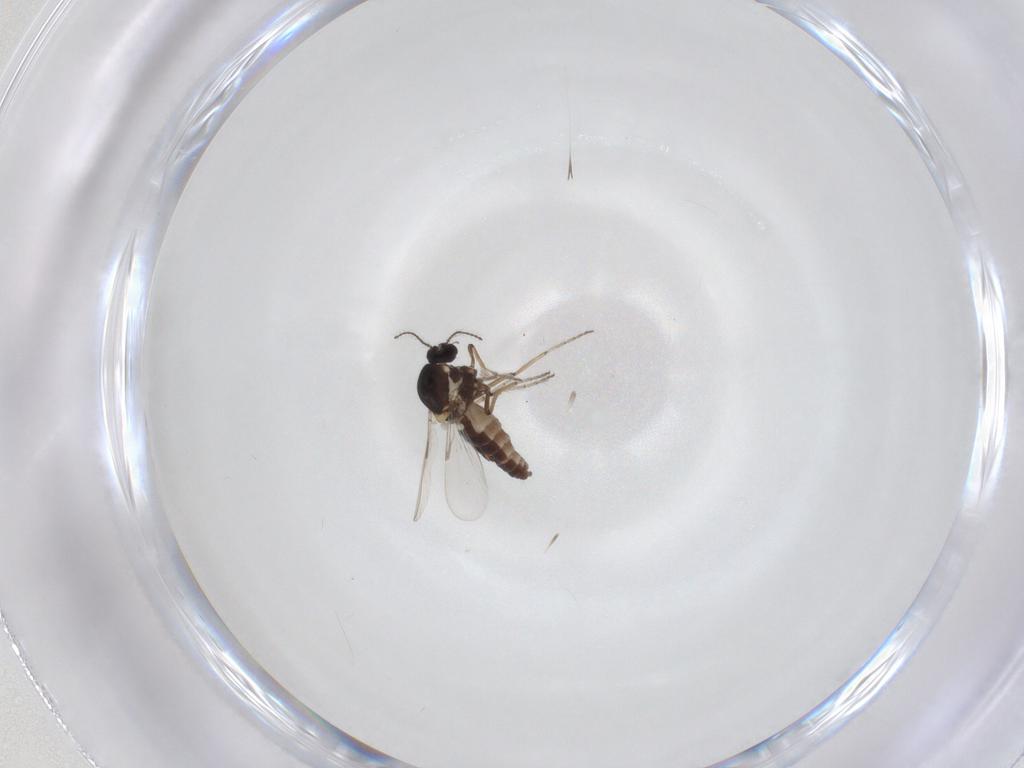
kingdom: Animalia
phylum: Arthropoda
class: Insecta
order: Diptera
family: Ceratopogonidae
